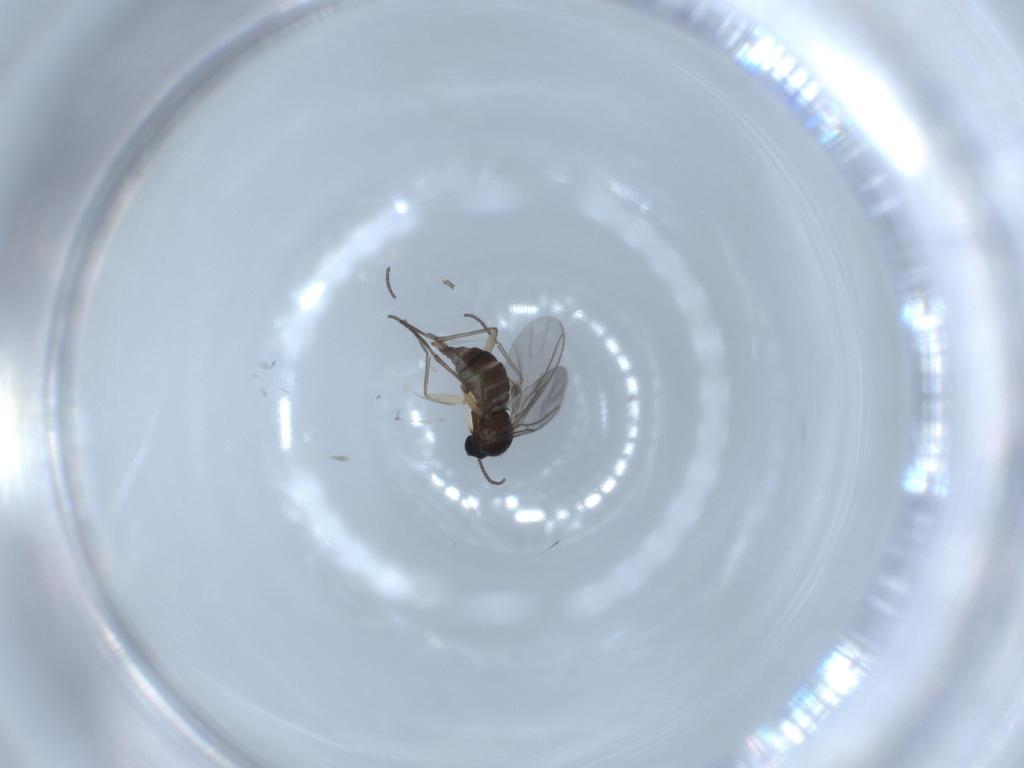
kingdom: Animalia
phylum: Arthropoda
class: Insecta
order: Diptera
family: Sciaridae
